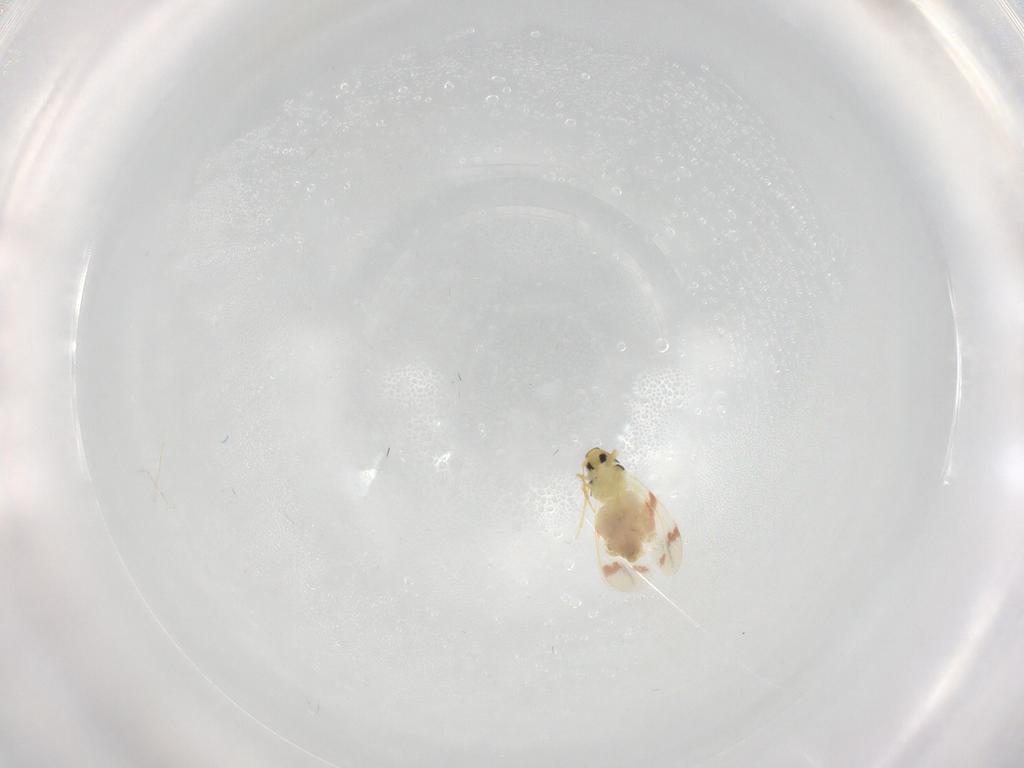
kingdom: Animalia
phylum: Arthropoda
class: Insecta
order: Hemiptera
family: Aleyrodidae
